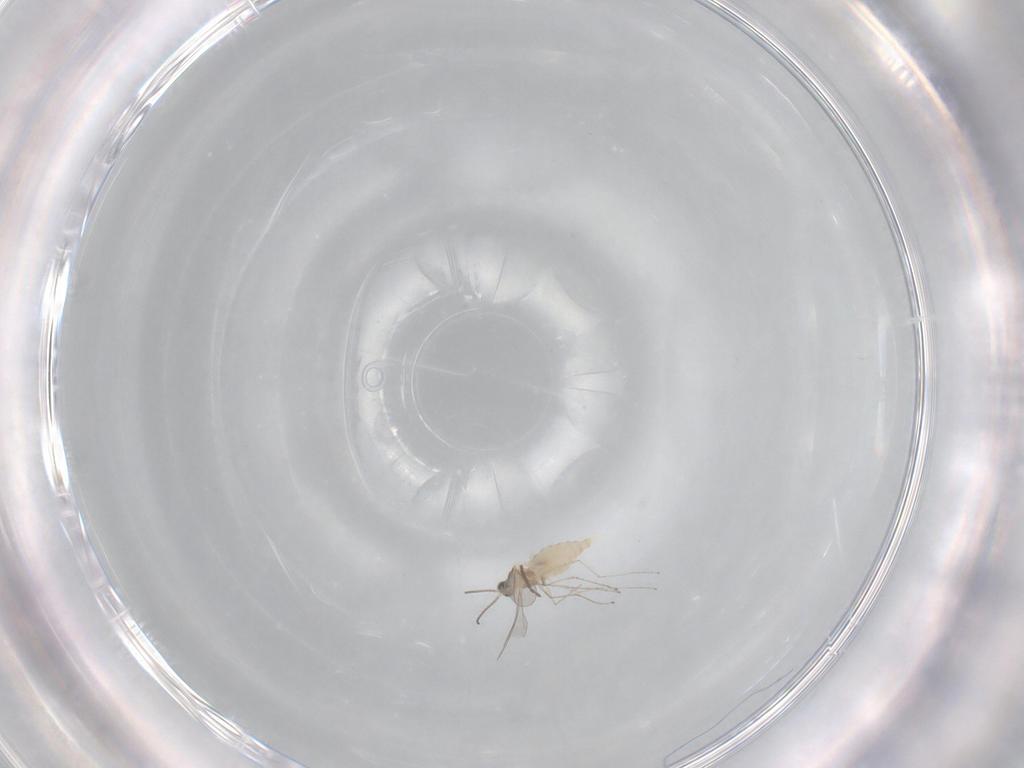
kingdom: Animalia
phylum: Arthropoda
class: Insecta
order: Diptera
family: Cecidomyiidae
